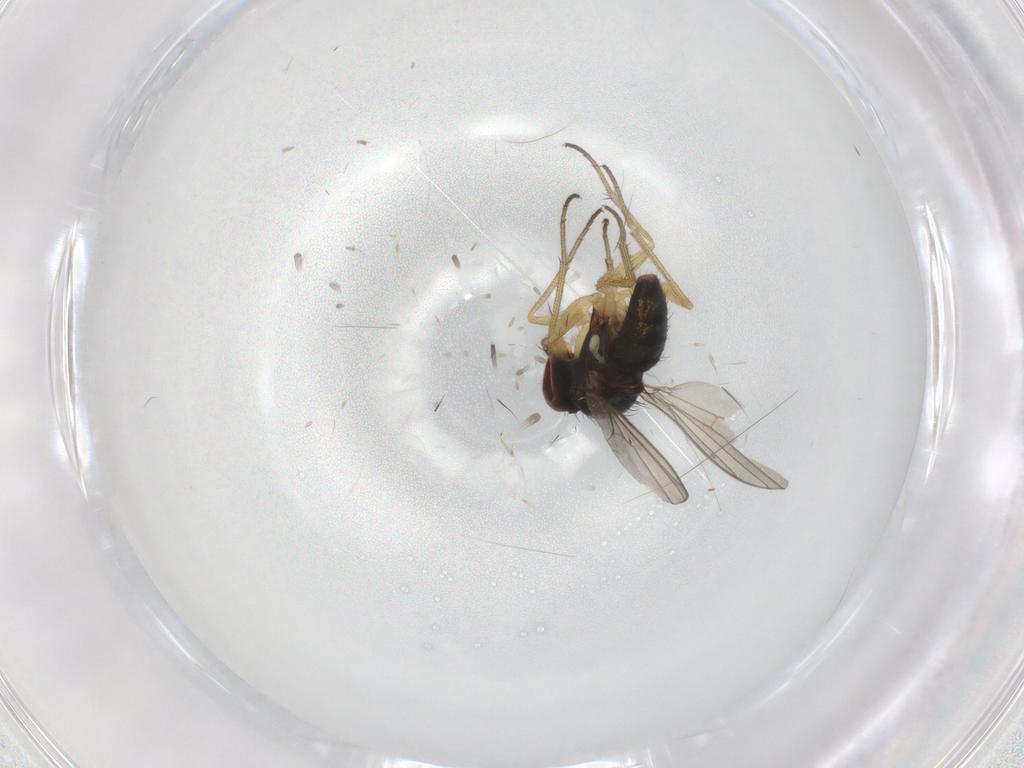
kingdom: Animalia
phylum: Arthropoda
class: Insecta
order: Diptera
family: Dolichopodidae
